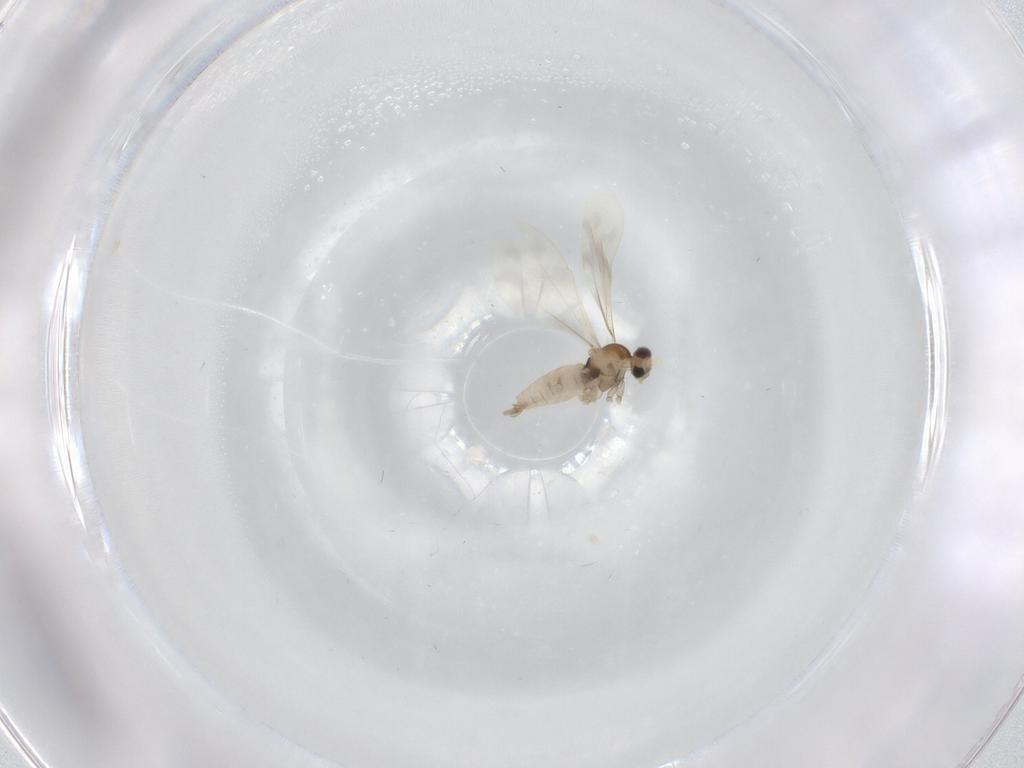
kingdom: Animalia
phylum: Arthropoda
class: Insecta
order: Diptera
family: Cecidomyiidae
